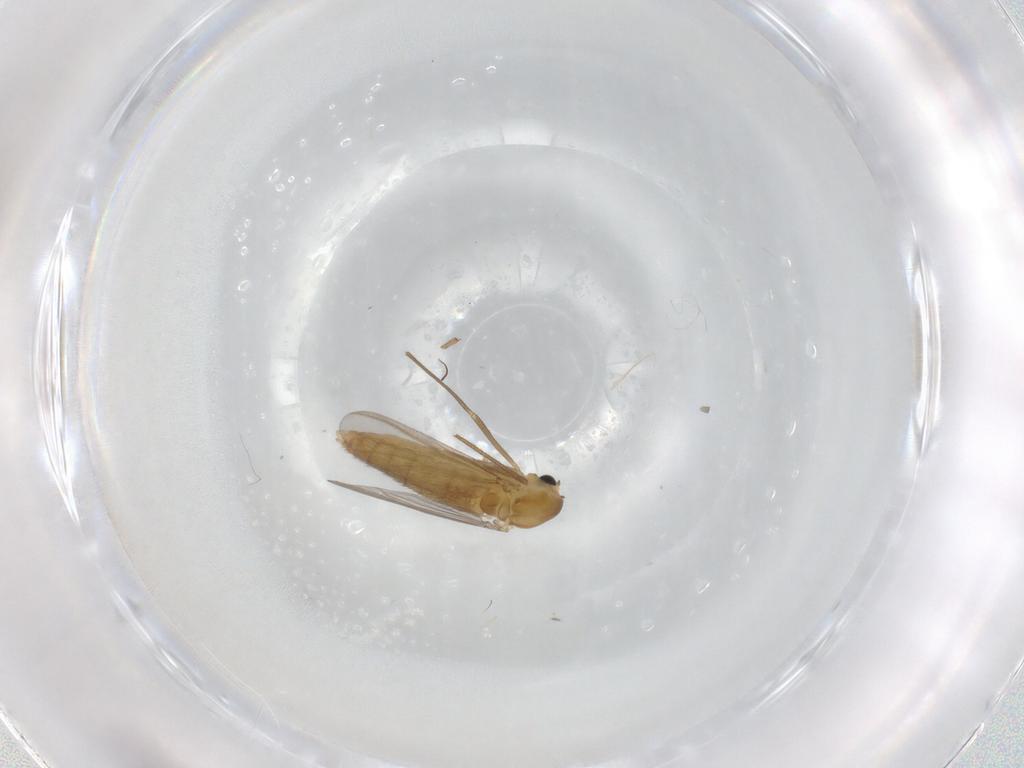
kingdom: Animalia
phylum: Arthropoda
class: Insecta
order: Diptera
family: Chironomidae
